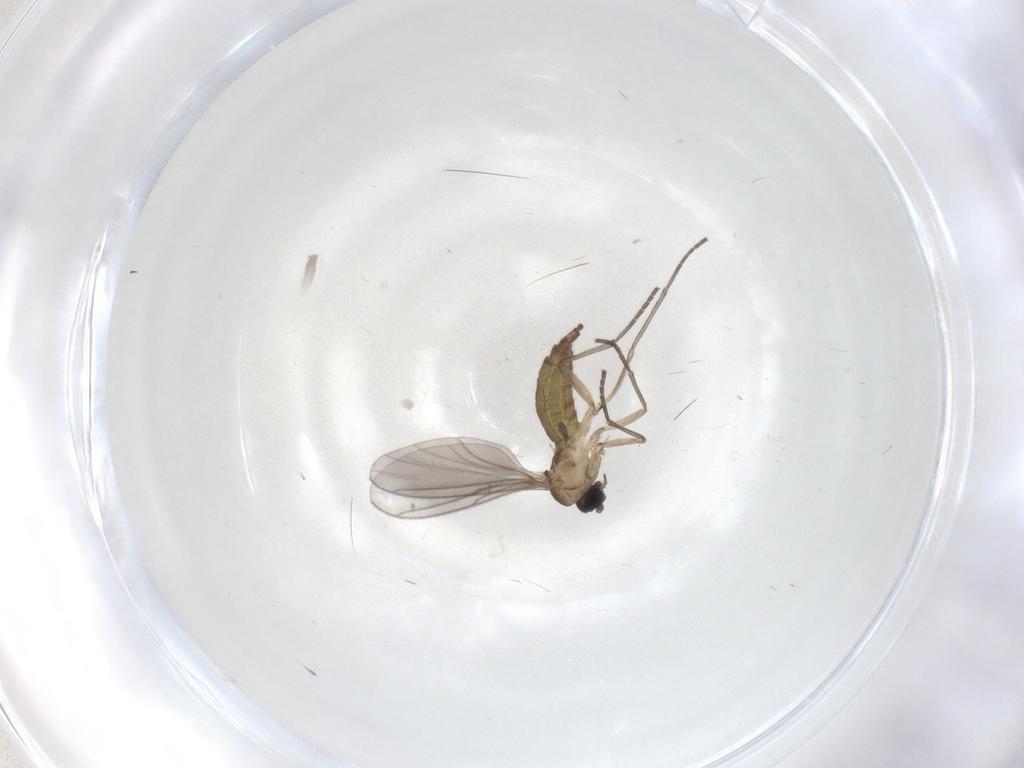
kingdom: Animalia
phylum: Arthropoda
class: Insecta
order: Diptera
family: Sciaridae
